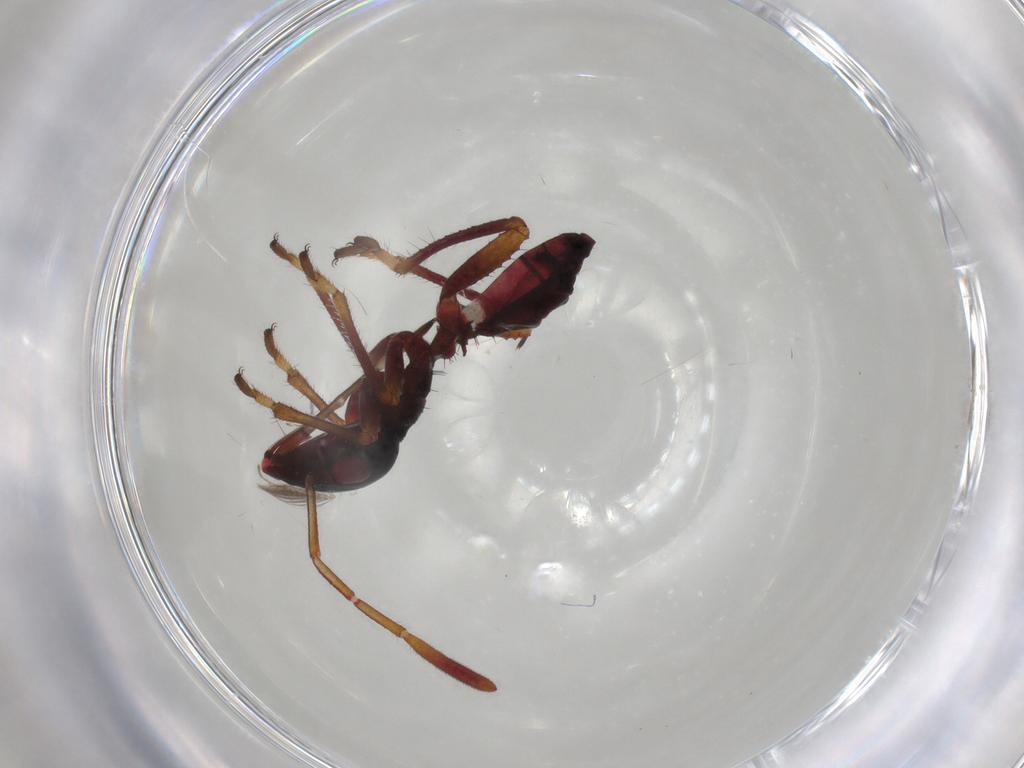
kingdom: Animalia
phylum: Arthropoda
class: Insecta
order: Hemiptera
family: Alydidae
